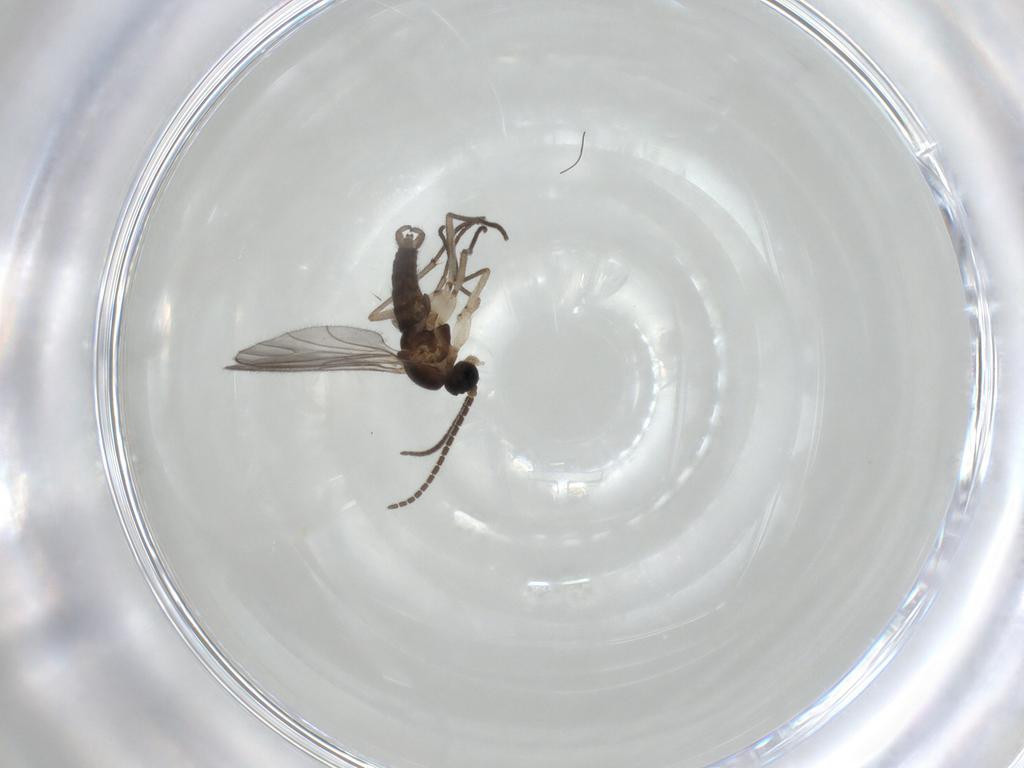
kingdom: Animalia
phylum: Arthropoda
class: Insecta
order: Diptera
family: Sciaridae
